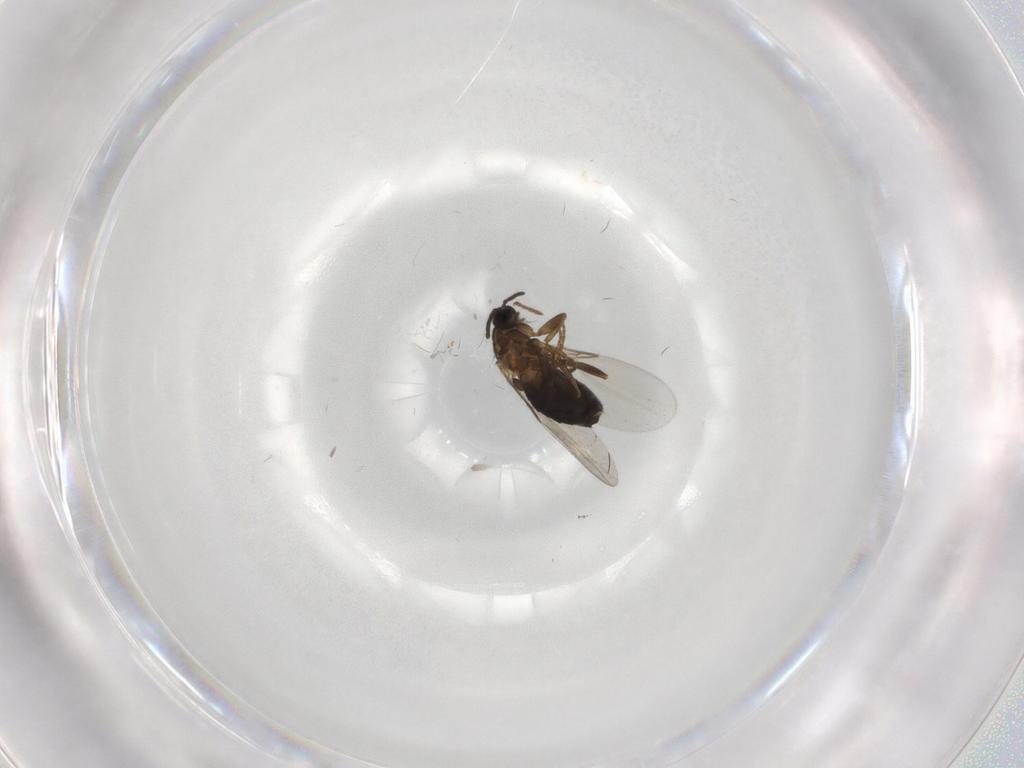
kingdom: Animalia
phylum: Arthropoda
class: Insecta
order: Diptera
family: Scatopsidae
